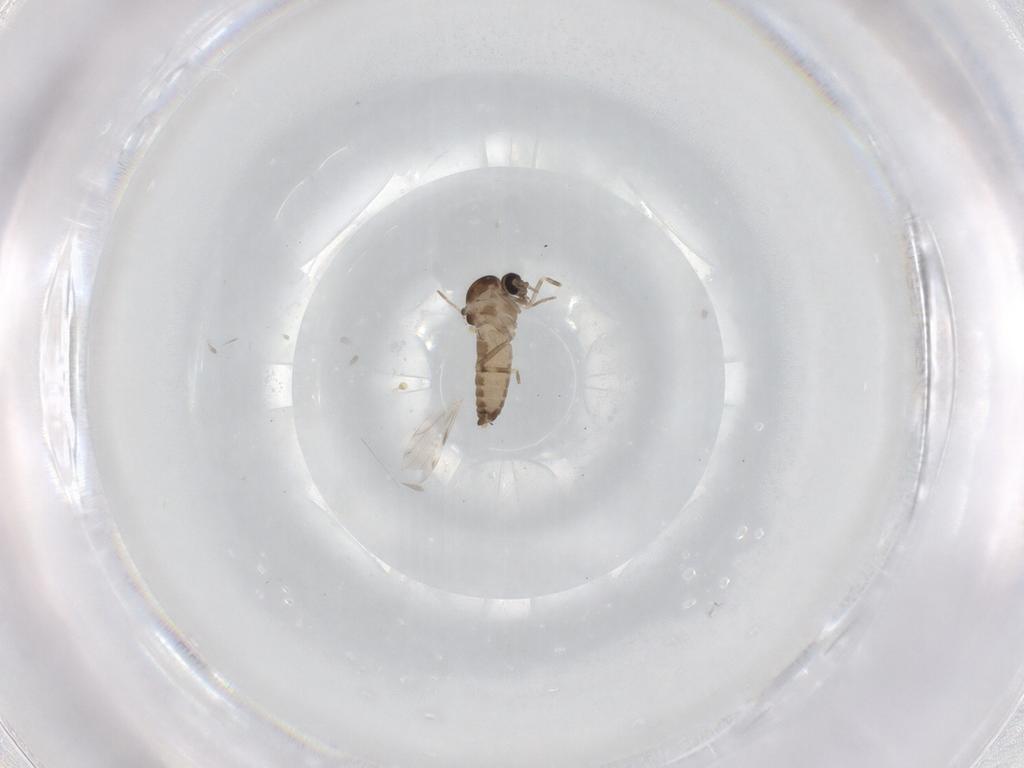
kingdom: Animalia
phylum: Arthropoda
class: Insecta
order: Diptera
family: Ceratopogonidae
